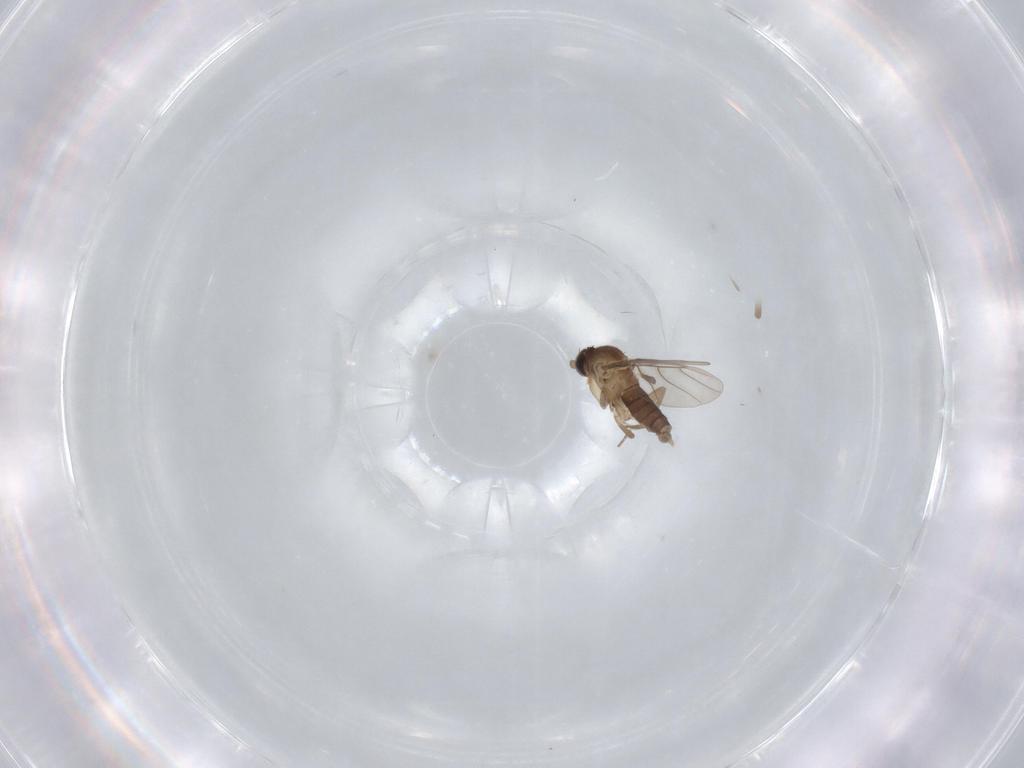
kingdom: Animalia
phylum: Arthropoda
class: Insecta
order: Diptera
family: Phoridae
